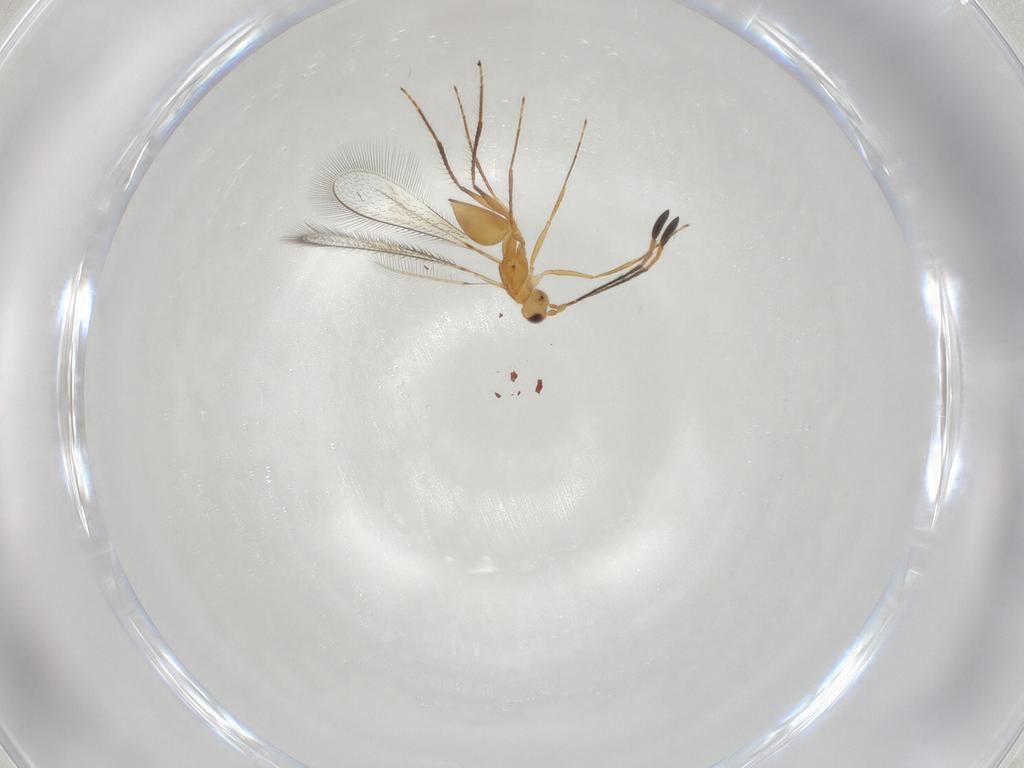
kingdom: Animalia
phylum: Arthropoda
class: Insecta
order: Hymenoptera
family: Mymaridae
